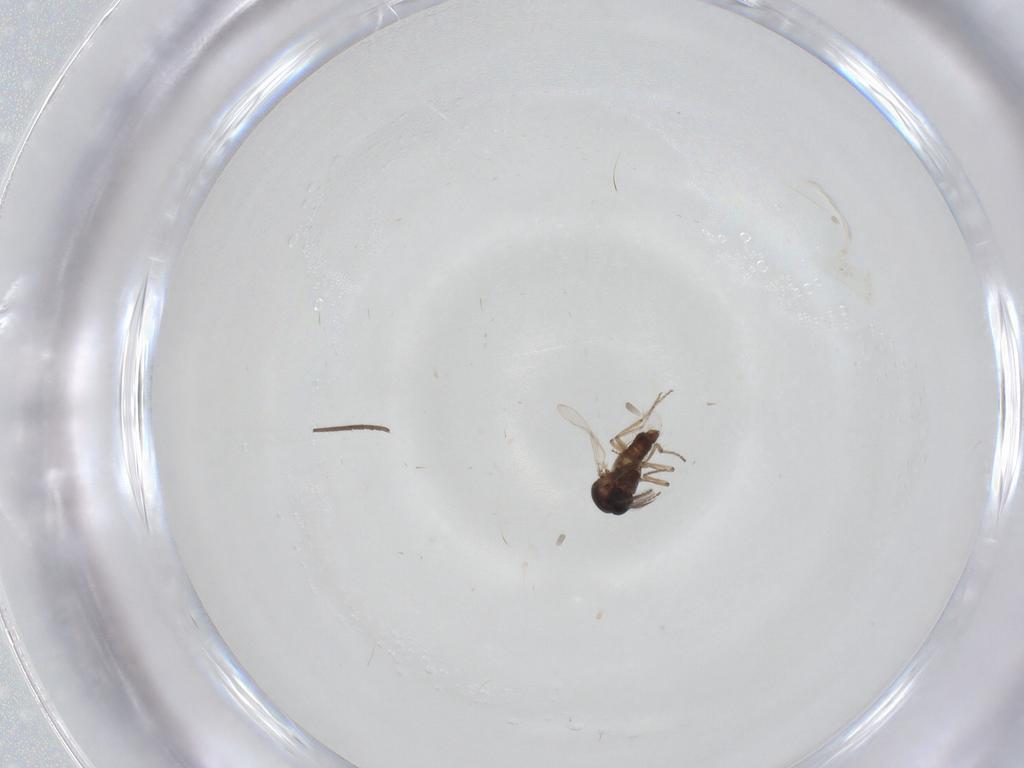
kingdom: Animalia
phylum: Arthropoda
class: Insecta
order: Diptera
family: Ceratopogonidae
